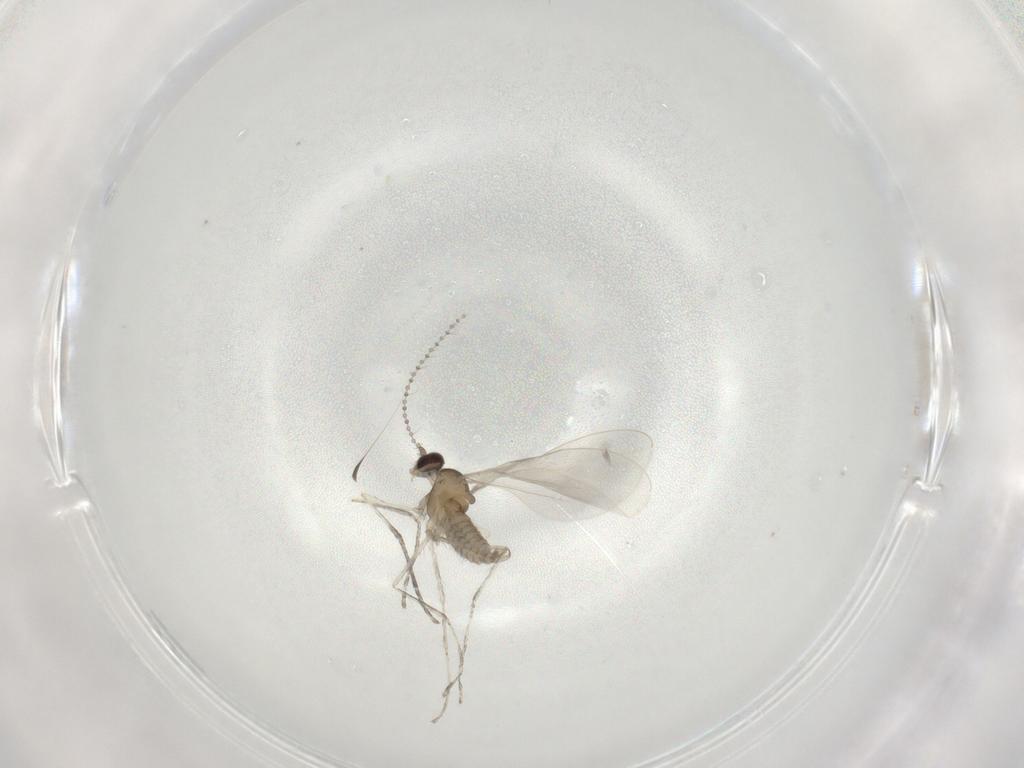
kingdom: Animalia
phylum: Arthropoda
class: Insecta
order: Diptera
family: Cecidomyiidae
